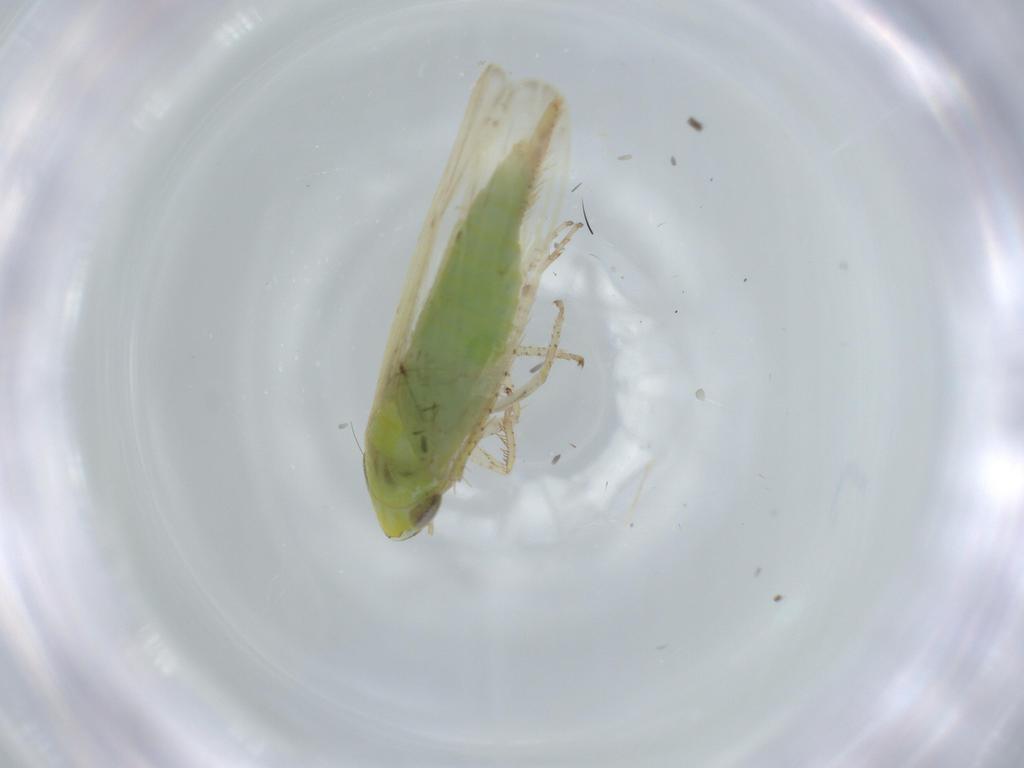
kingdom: Animalia
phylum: Arthropoda
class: Insecta
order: Hemiptera
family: Cicadellidae
